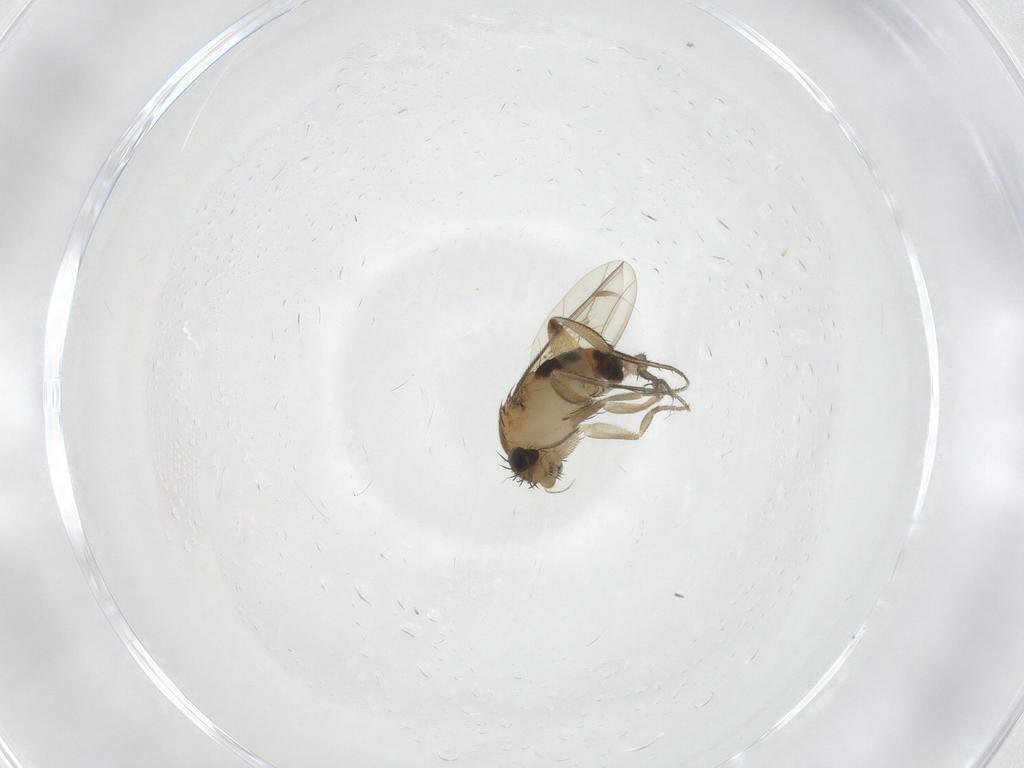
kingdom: Animalia
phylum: Arthropoda
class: Insecta
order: Diptera
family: Phoridae
